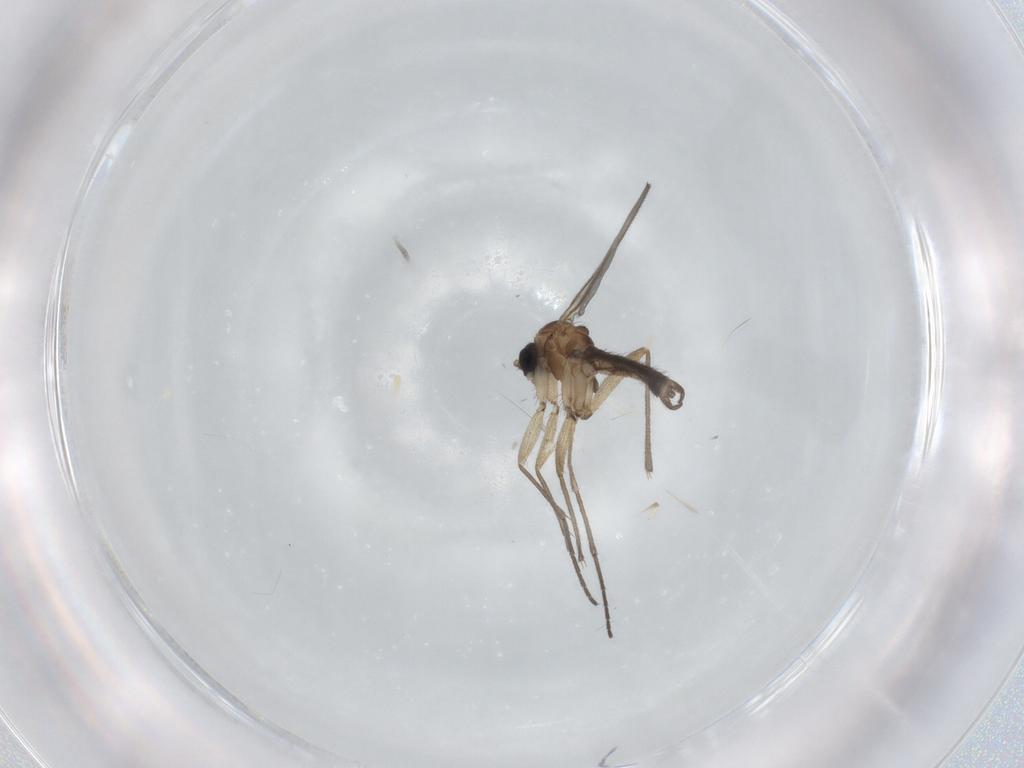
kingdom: Animalia
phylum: Arthropoda
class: Insecta
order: Diptera
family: Sciaridae
